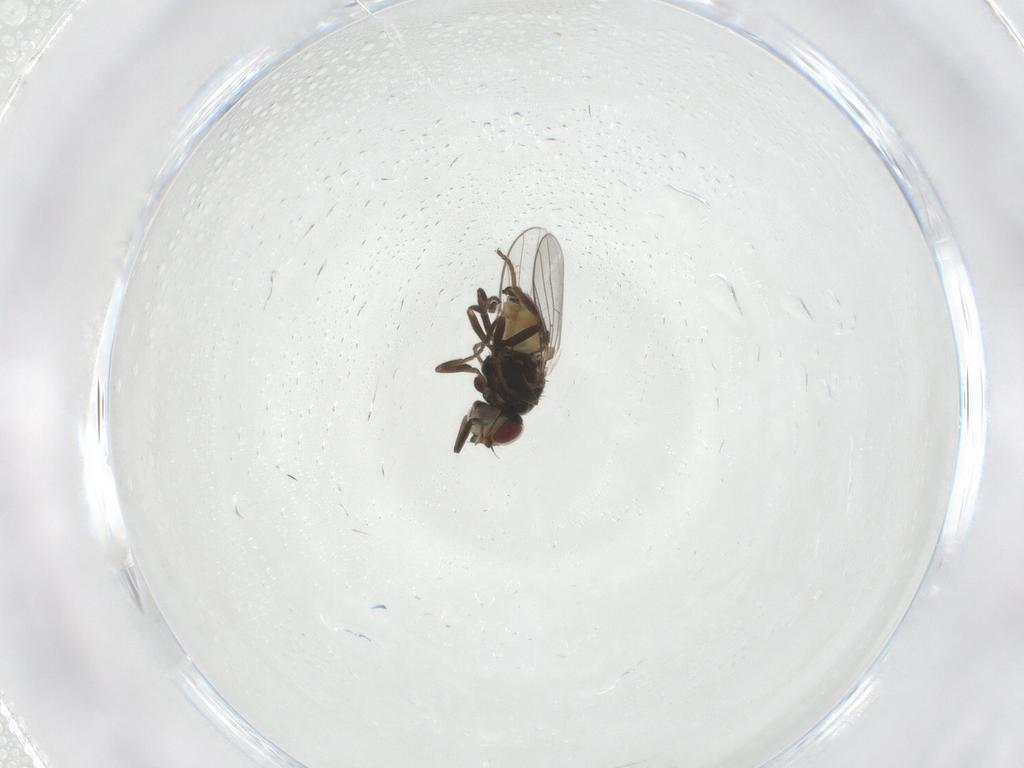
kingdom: Animalia
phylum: Arthropoda
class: Insecta
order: Diptera
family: Chloropidae
